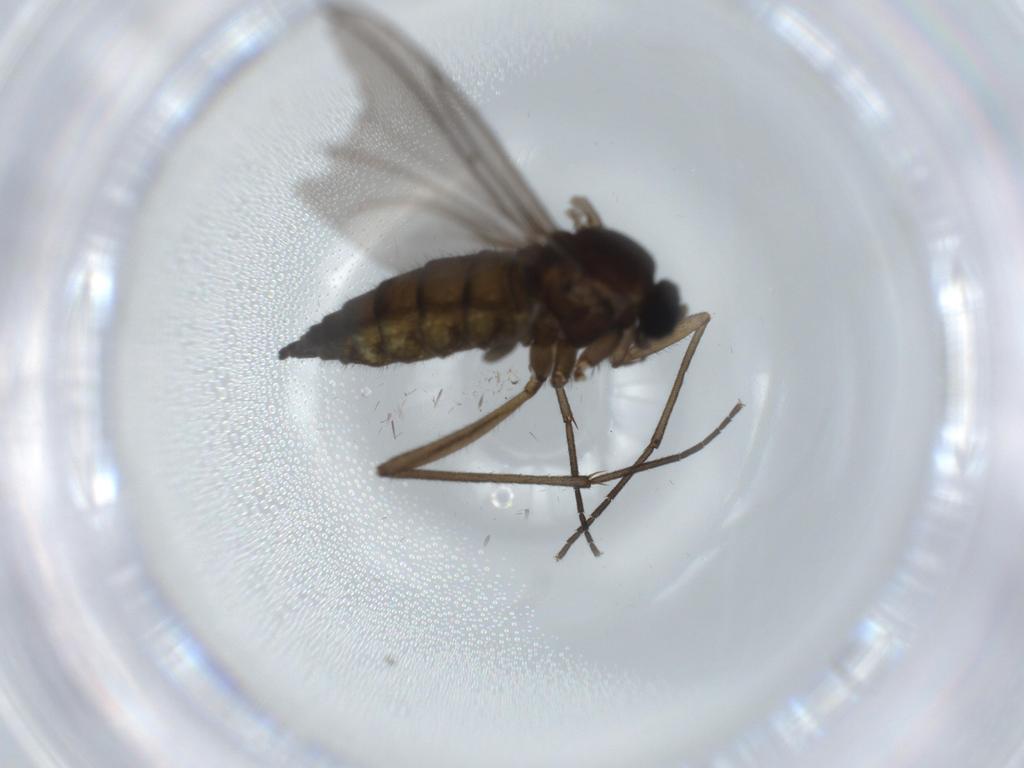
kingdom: Animalia
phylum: Arthropoda
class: Insecta
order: Diptera
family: Sciaridae
